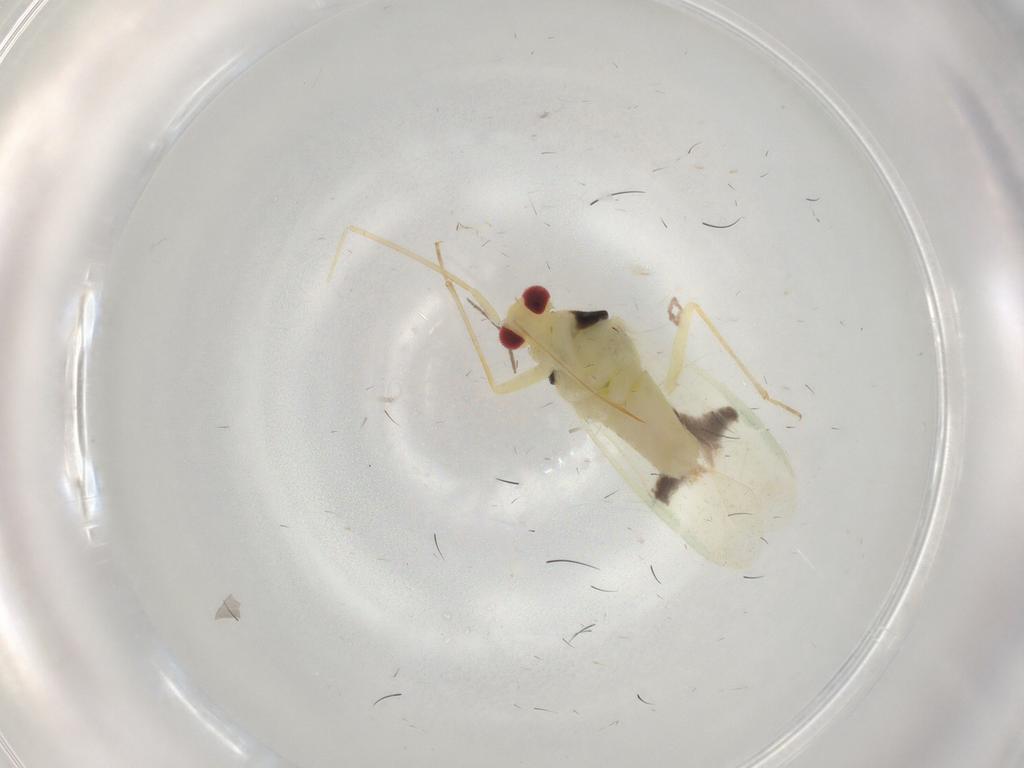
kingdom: Animalia
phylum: Arthropoda
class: Insecta
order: Hemiptera
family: Miridae
